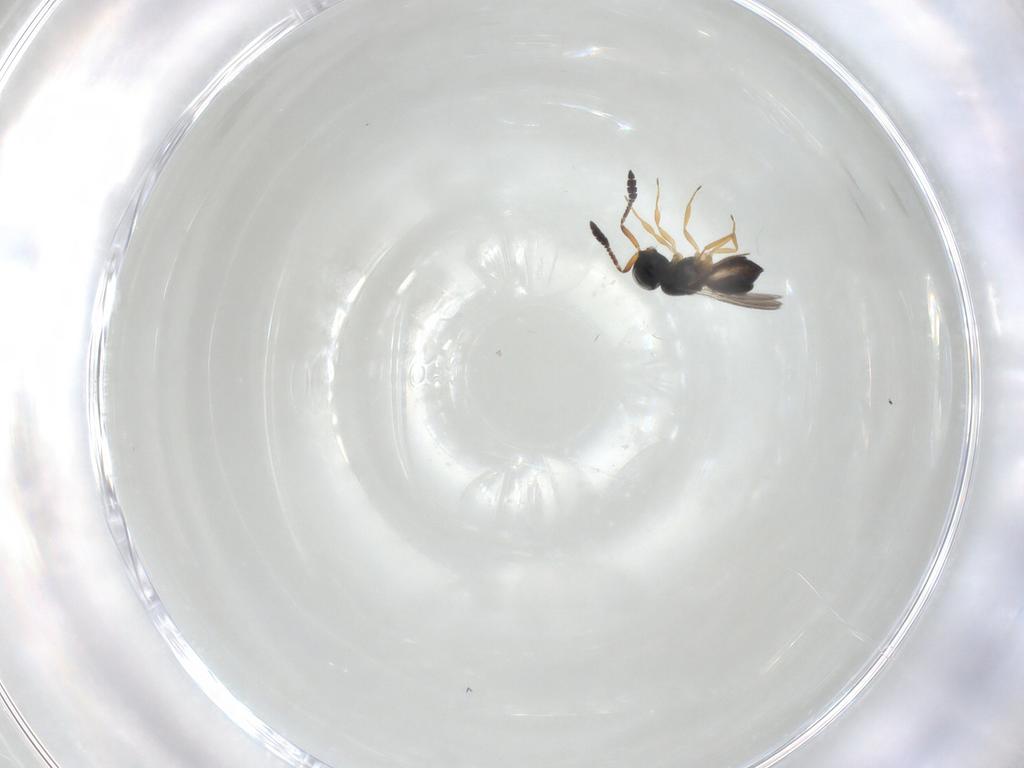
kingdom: Animalia
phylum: Arthropoda
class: Insecta
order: Hymenoptera
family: Scelionidae
